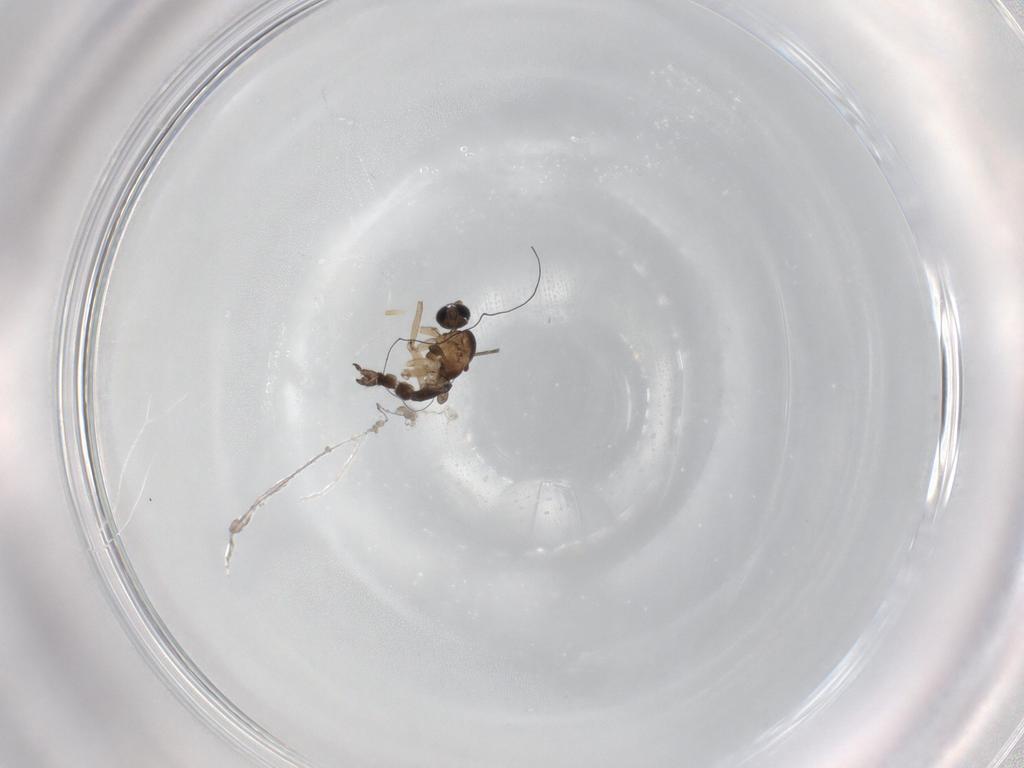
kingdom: Animalia
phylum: Arthropoda
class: Insecta
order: Diptera
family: Sciaridae
